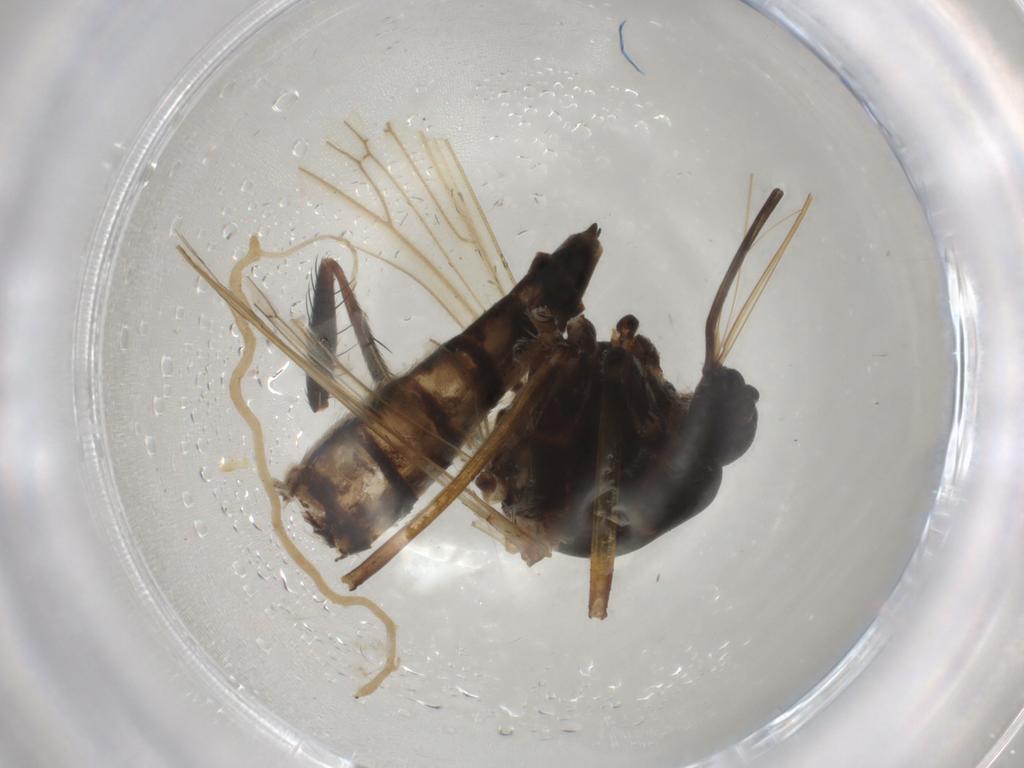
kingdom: Animalia
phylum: Arthropoda
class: Insecta
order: Diptera
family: Culicidae
